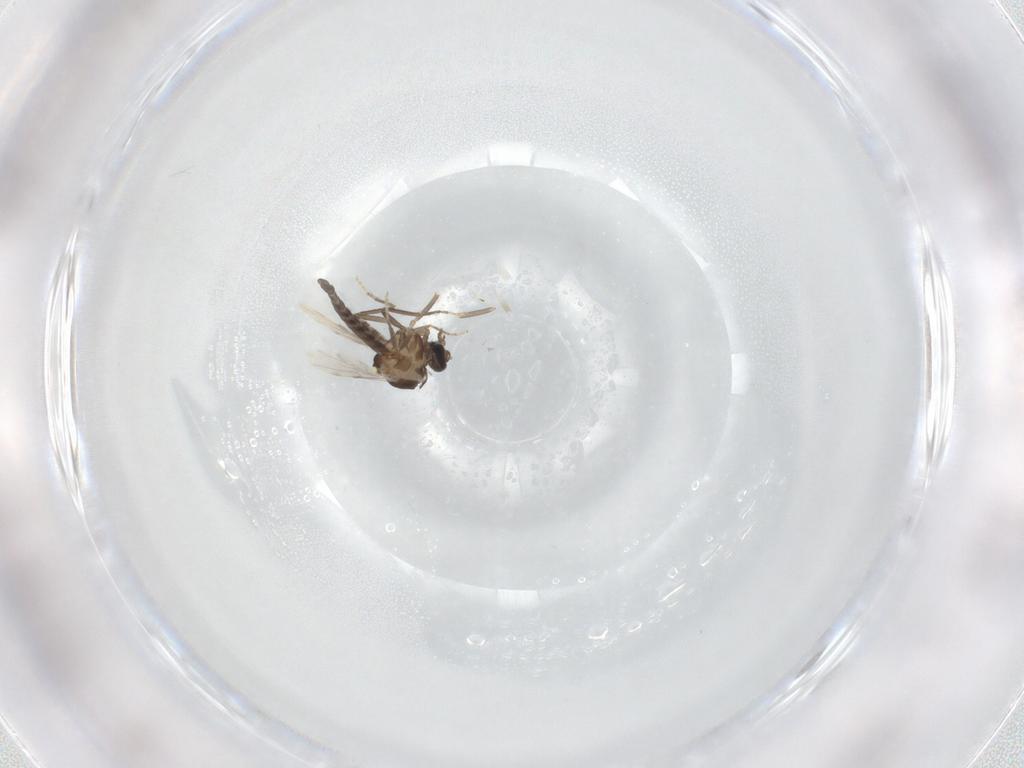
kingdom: Animalia
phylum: Arthropoda
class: Insecta
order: Diptera
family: Ceratopogonidae
